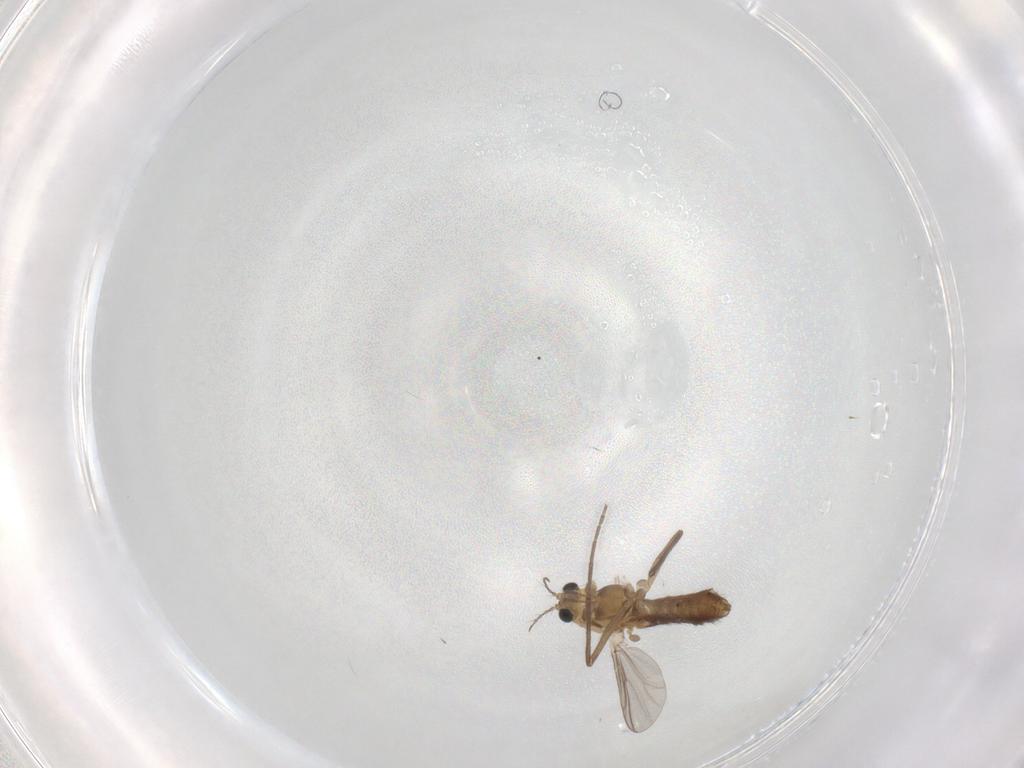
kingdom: Animalia
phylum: Arthropoda
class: Insecta
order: Diptera
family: Chironomidae
